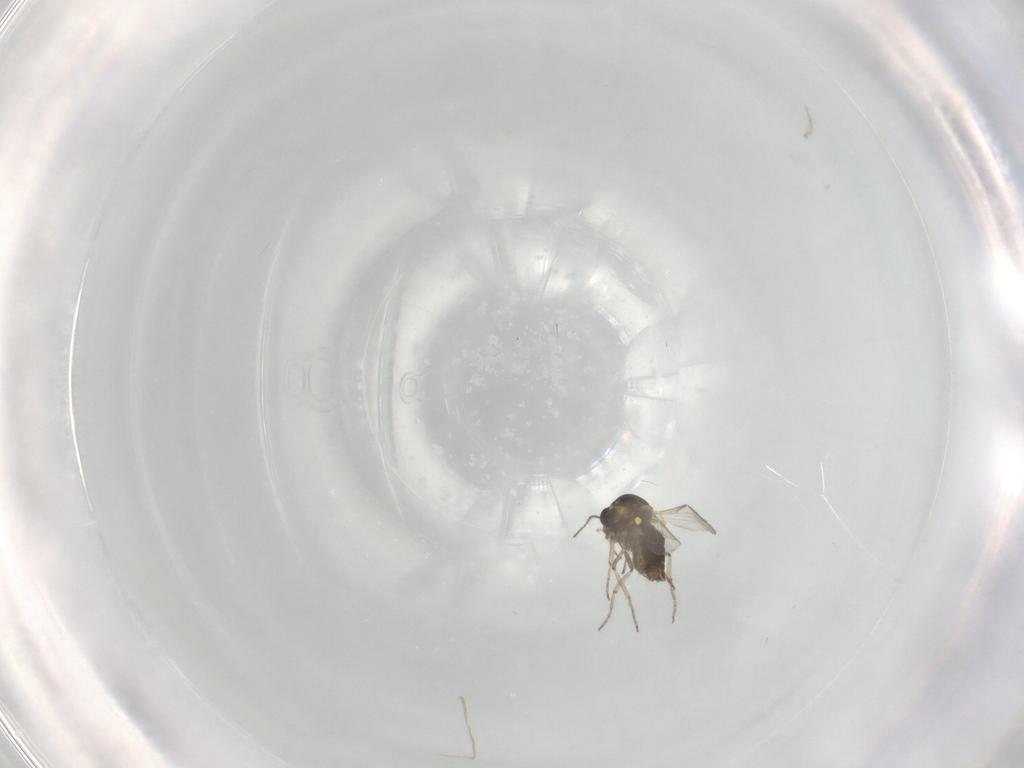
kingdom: Animalia
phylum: Arthropoda
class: Insecta
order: Diptera
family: Ceratopogonidae
